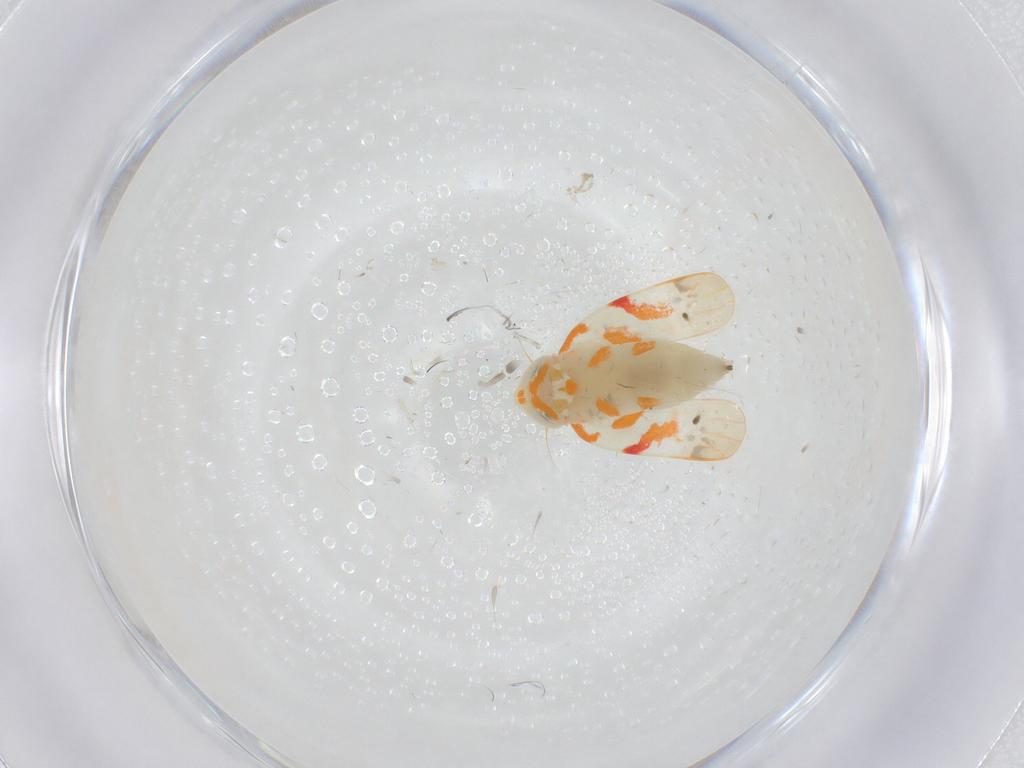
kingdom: Animalia
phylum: Arthropoda
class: Insecta
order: Hemiptera
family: Cicadellidae
